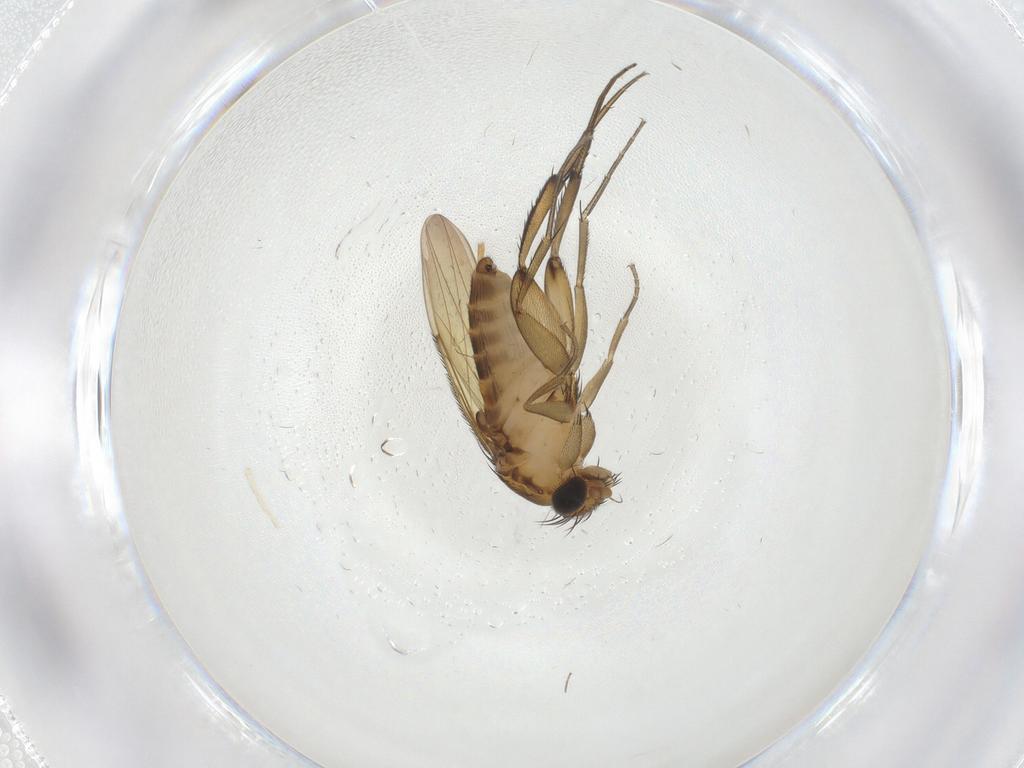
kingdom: Animalia
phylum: Arthropoda
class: Insecta
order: Diptera
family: Phoridae
